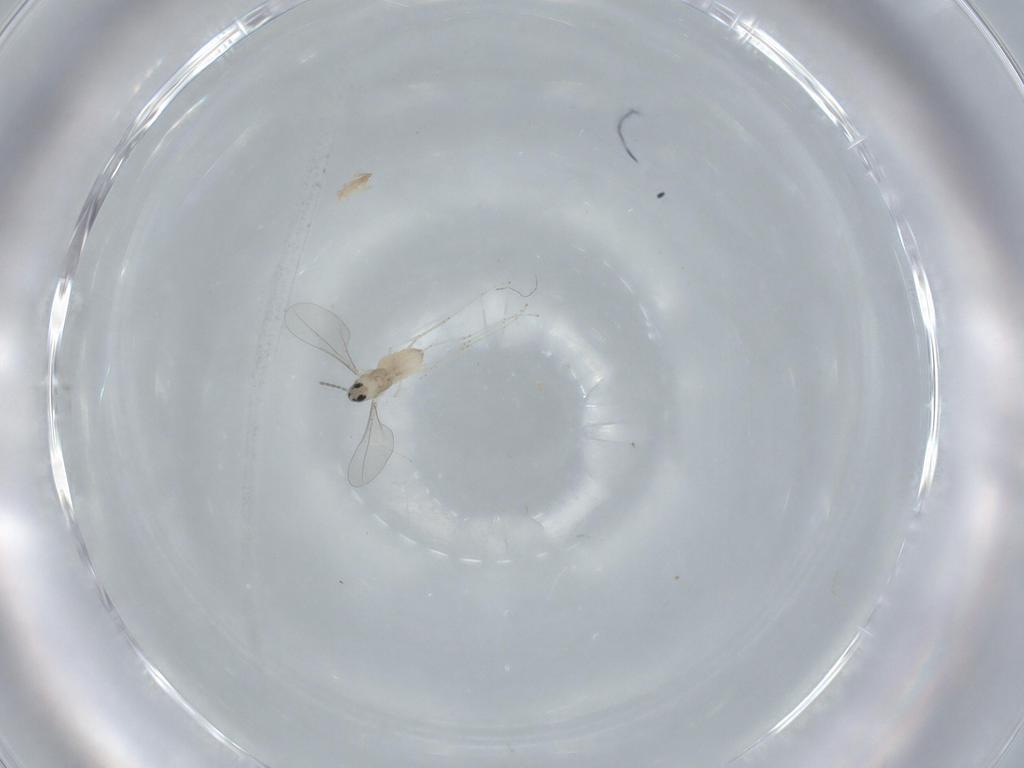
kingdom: Animalia
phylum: Arthropoda
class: Insecta
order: Diptera
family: Cecidomyiidae
